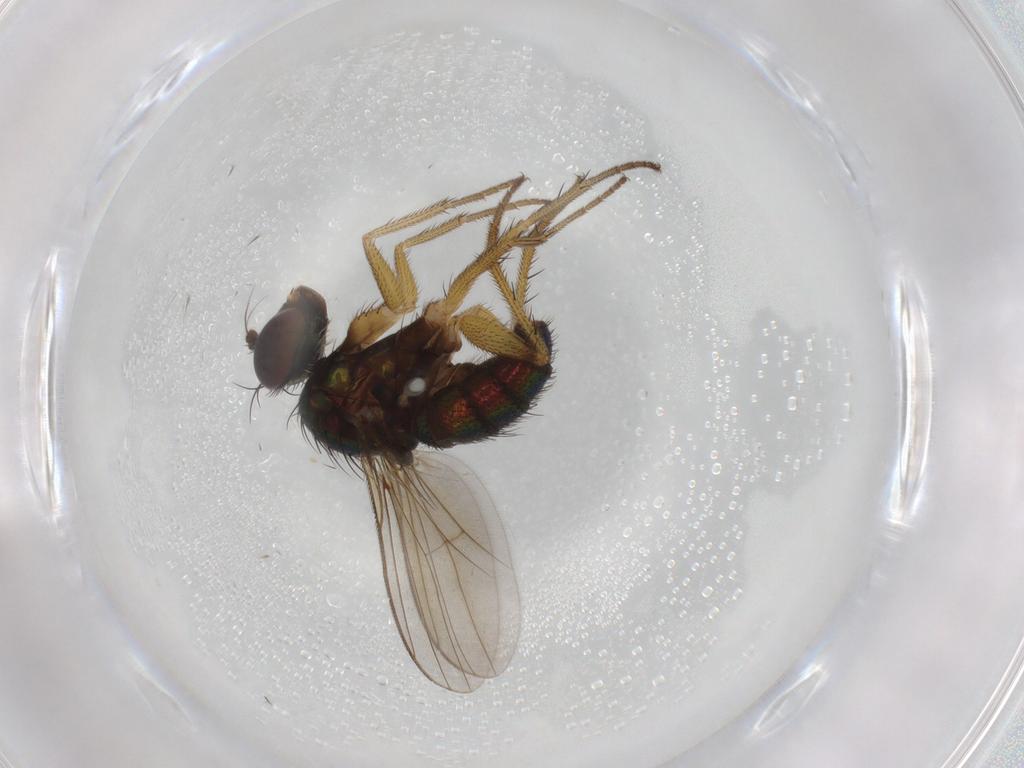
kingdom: Animalia
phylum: Arthropoda
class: Insecta
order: Diptera
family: Dolichopodidae
